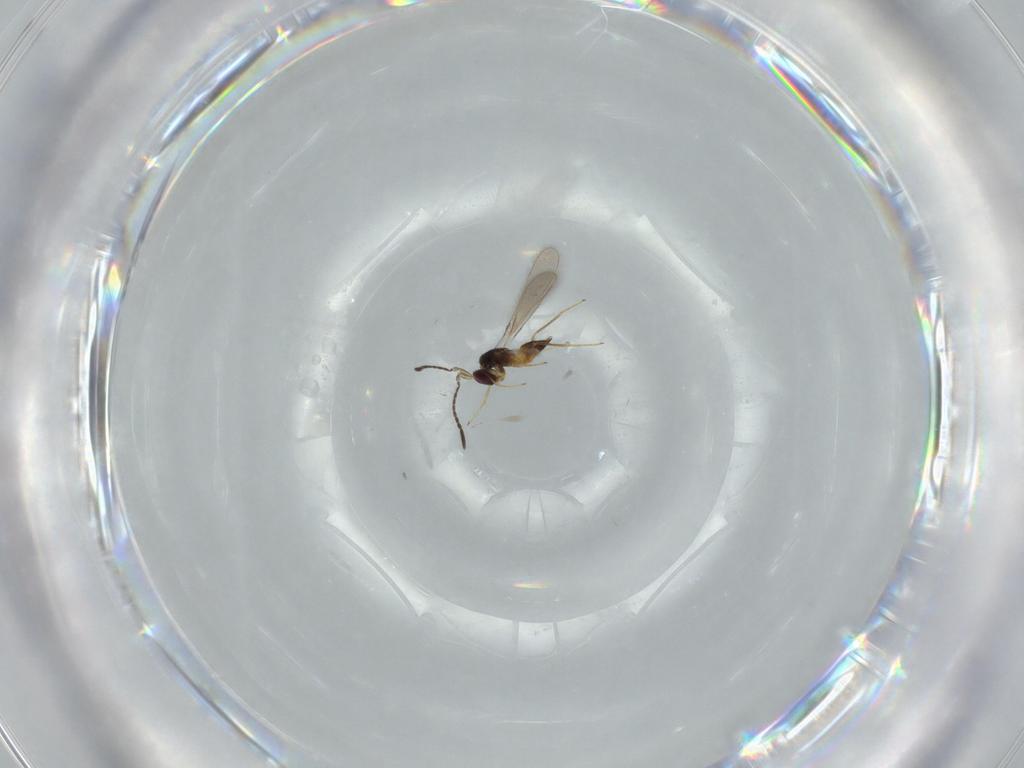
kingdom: Animalia
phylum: Arthropoda
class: Insecta
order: Hymenoptera
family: Mymaridae
